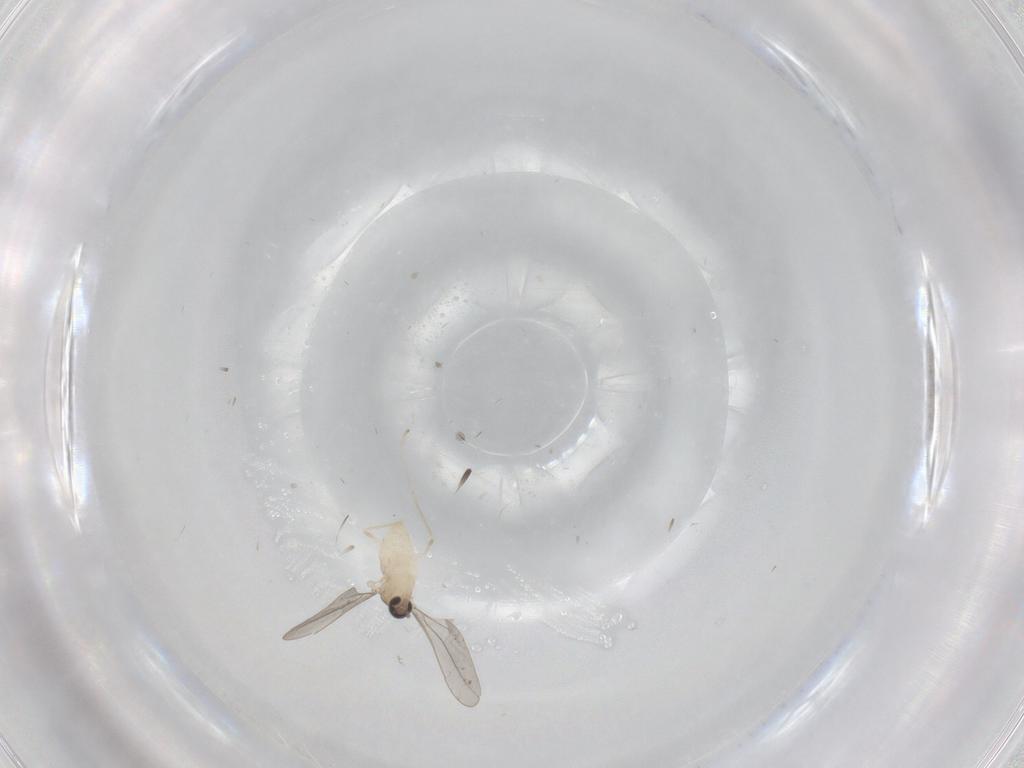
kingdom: Animalia
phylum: Arthropoda
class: Insecta
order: Diptera
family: Cecidomyiidae
